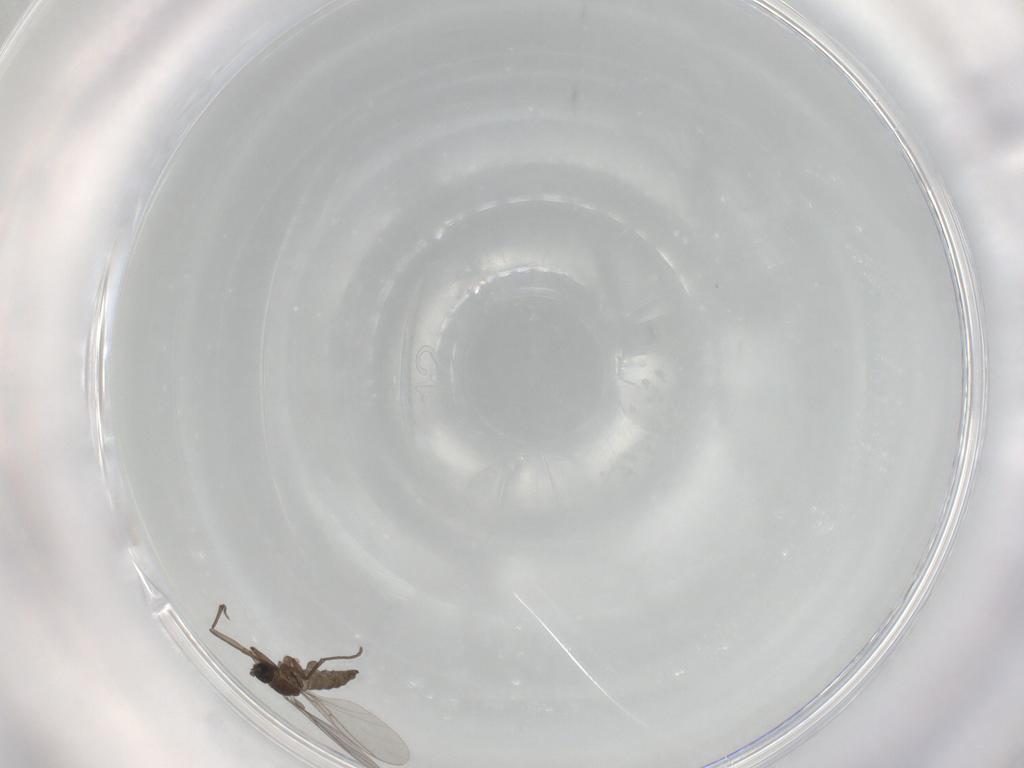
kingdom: Animalia
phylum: Arthropoda
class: Insecta
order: Diptera
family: Sciaridae
